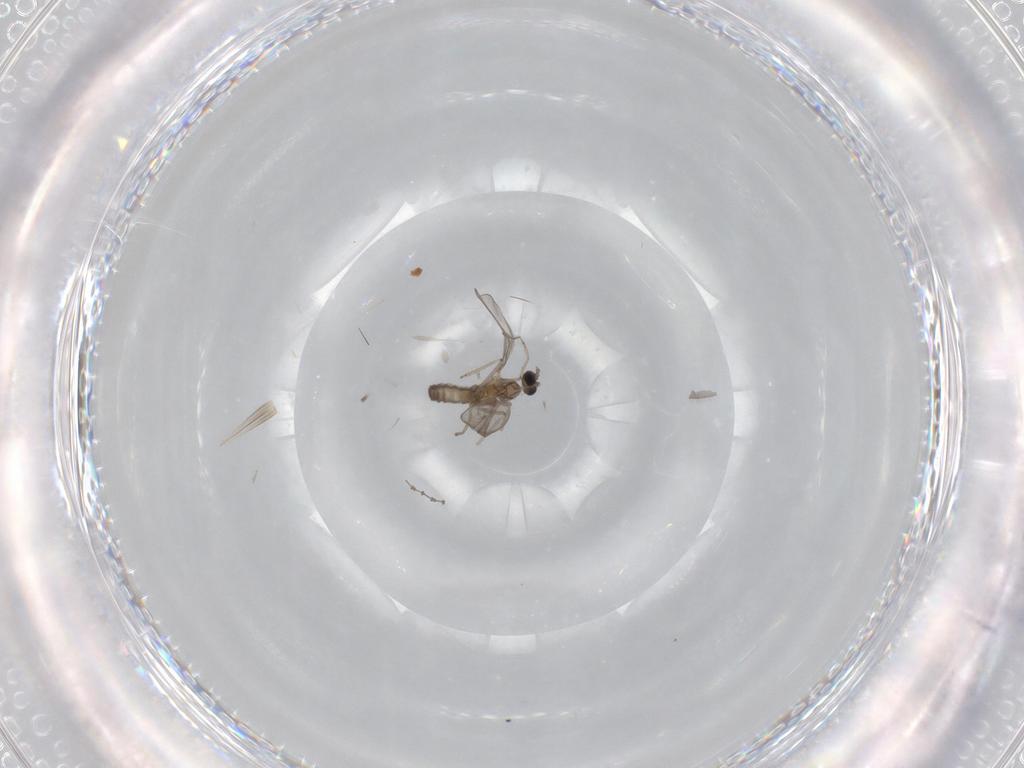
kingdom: Animalia
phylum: Arthropoda
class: Insecta
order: Diptera
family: Cecidomyiidae
